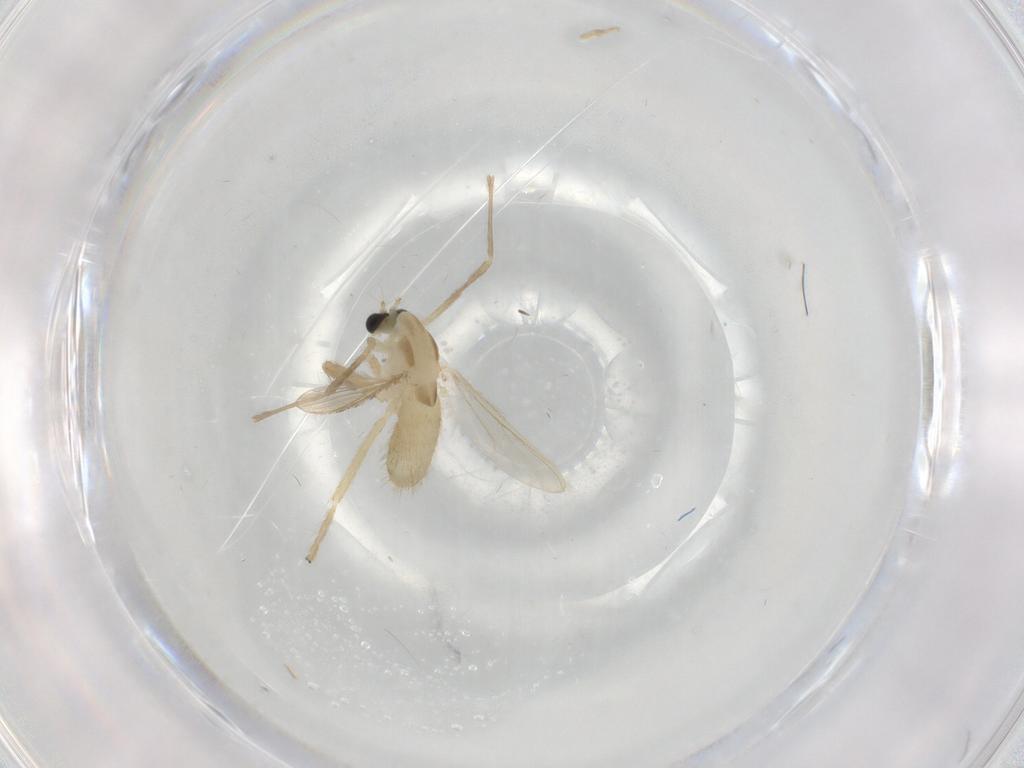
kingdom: Animalia
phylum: Arthropoda
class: Insecta
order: Diptera
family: Chironomidae
